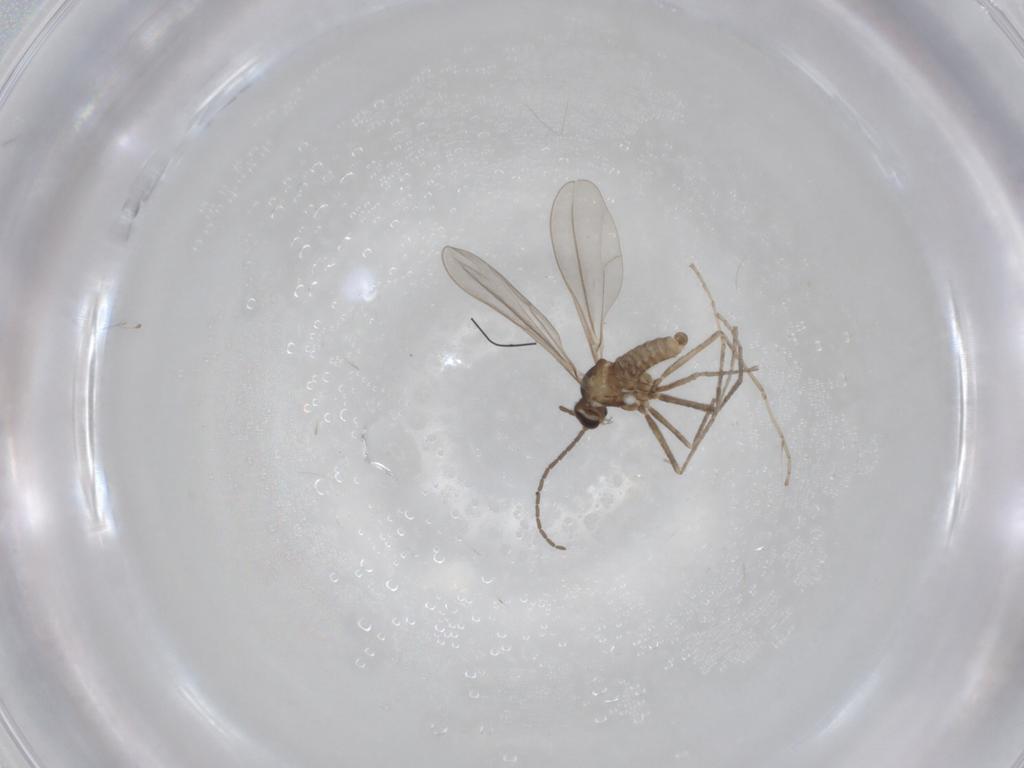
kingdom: Animalia
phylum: Arthropoda
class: Insecta
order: Diptera
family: Cecidomyiidae
